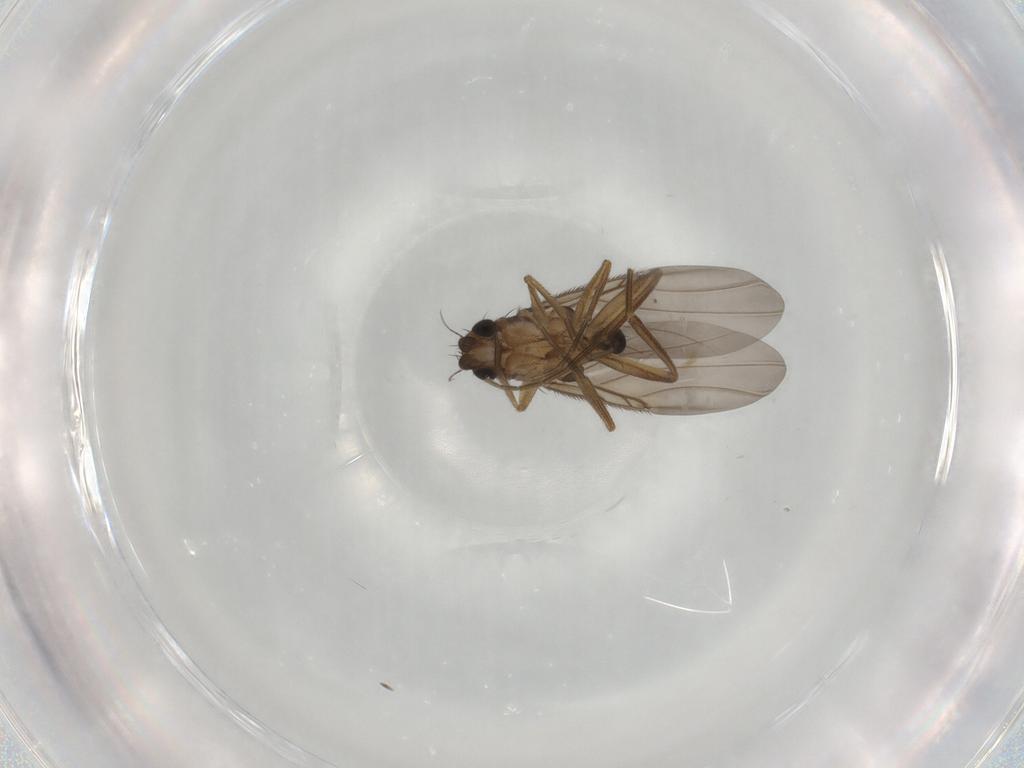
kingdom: Animalia
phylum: Arthropoda
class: Insecta
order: Diptera
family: Phoridae
